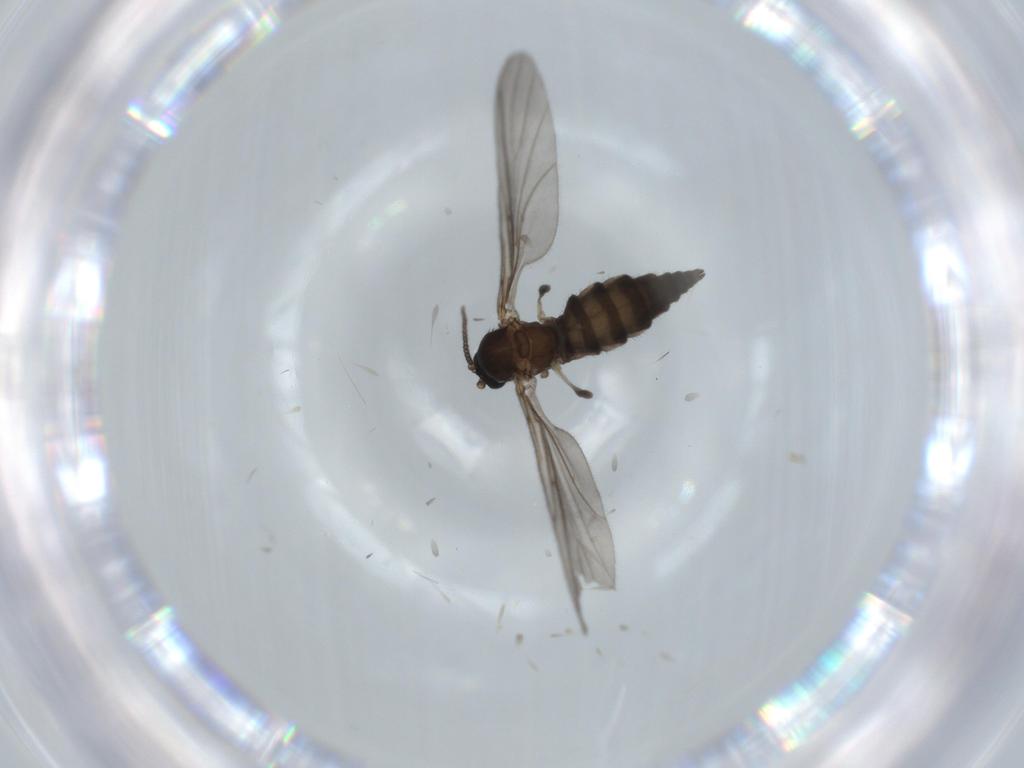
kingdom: Animalia
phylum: Arthropoda
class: Insecta
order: Diptera
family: Sciaridae
